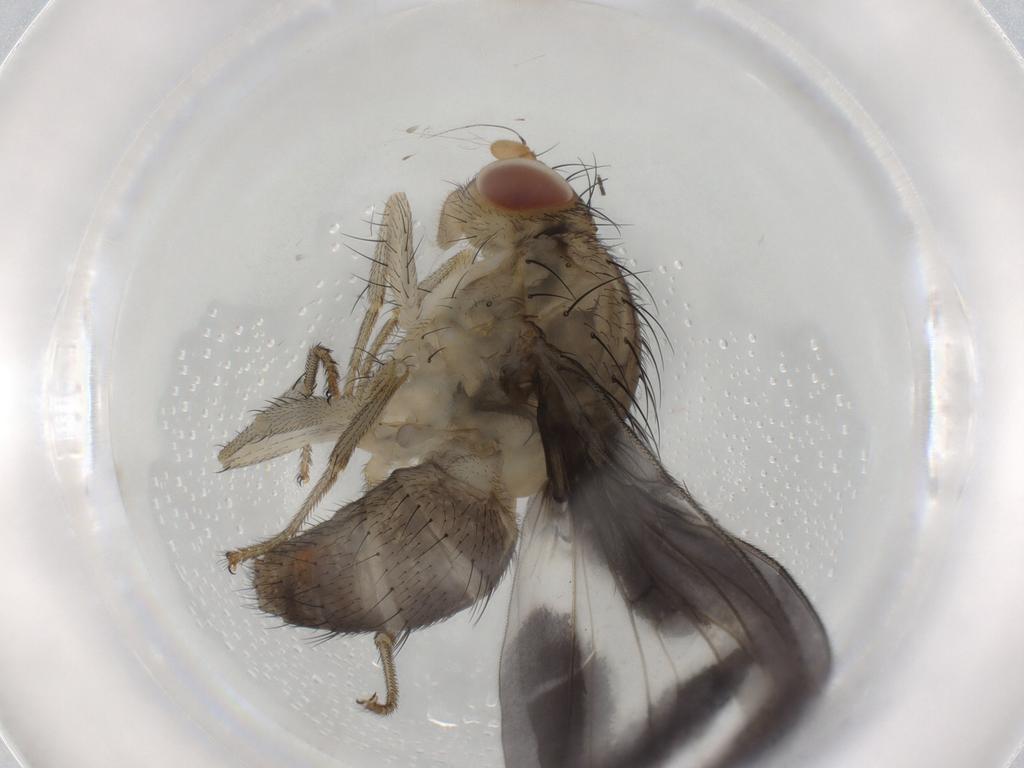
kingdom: Animalia
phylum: Arthropoda
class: Insecta
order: Diptera
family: Lauxaniidae
